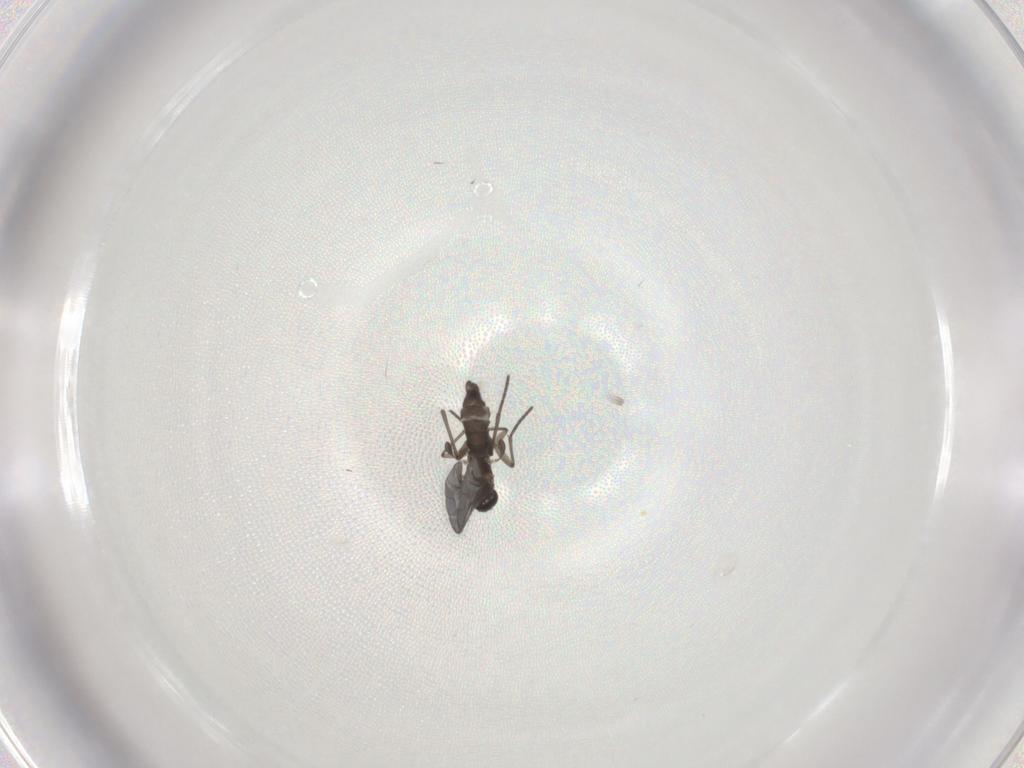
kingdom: Animalia
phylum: Arthropoda
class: Insecta
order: Diptera
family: Sciaridae
